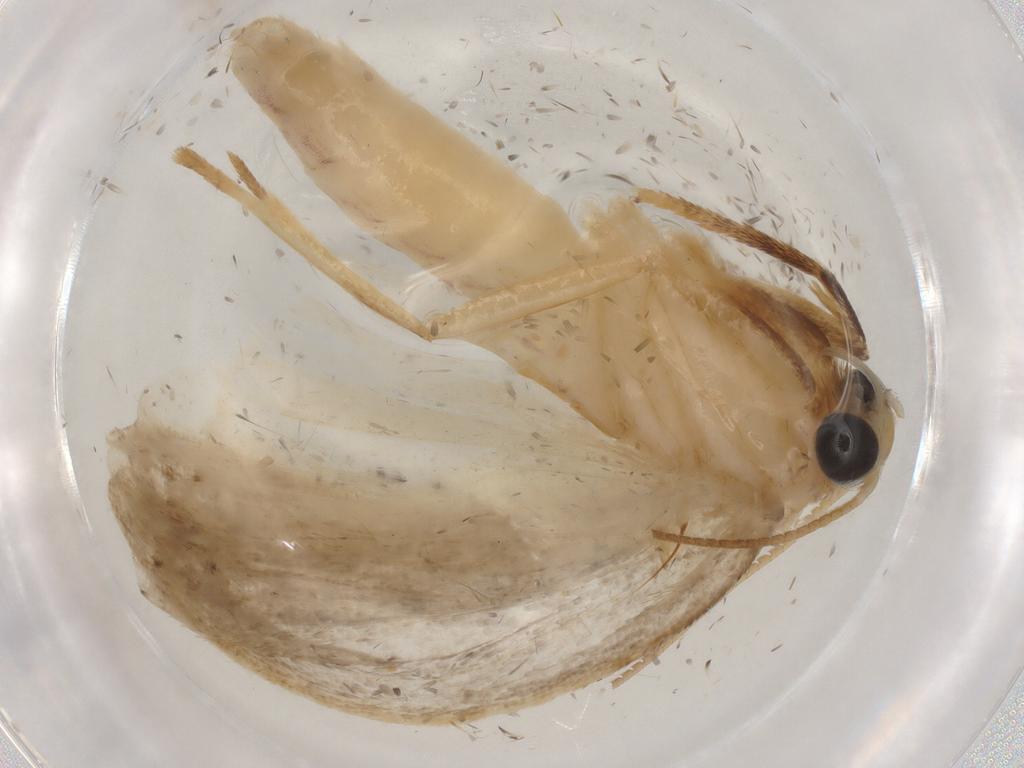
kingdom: Animalia
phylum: Arthropoda
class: Insecta
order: Lepidoptera
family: Crambidae
